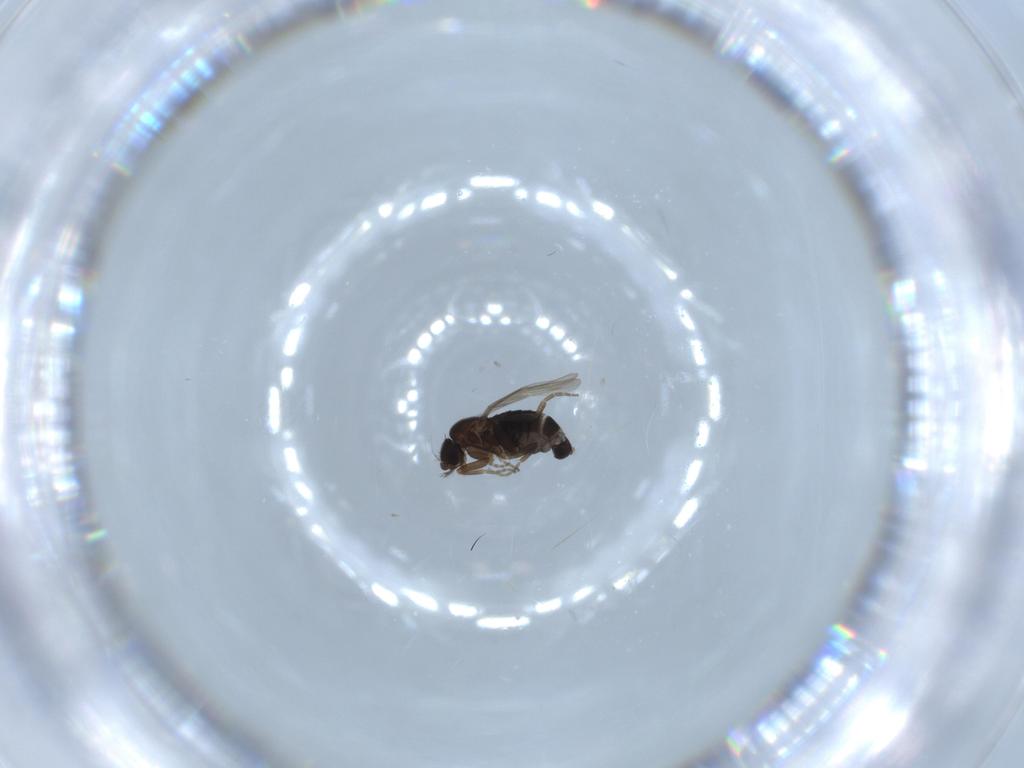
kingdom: Animalia
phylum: Arthropoda
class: Insecta
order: Diptera
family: Phoridae
